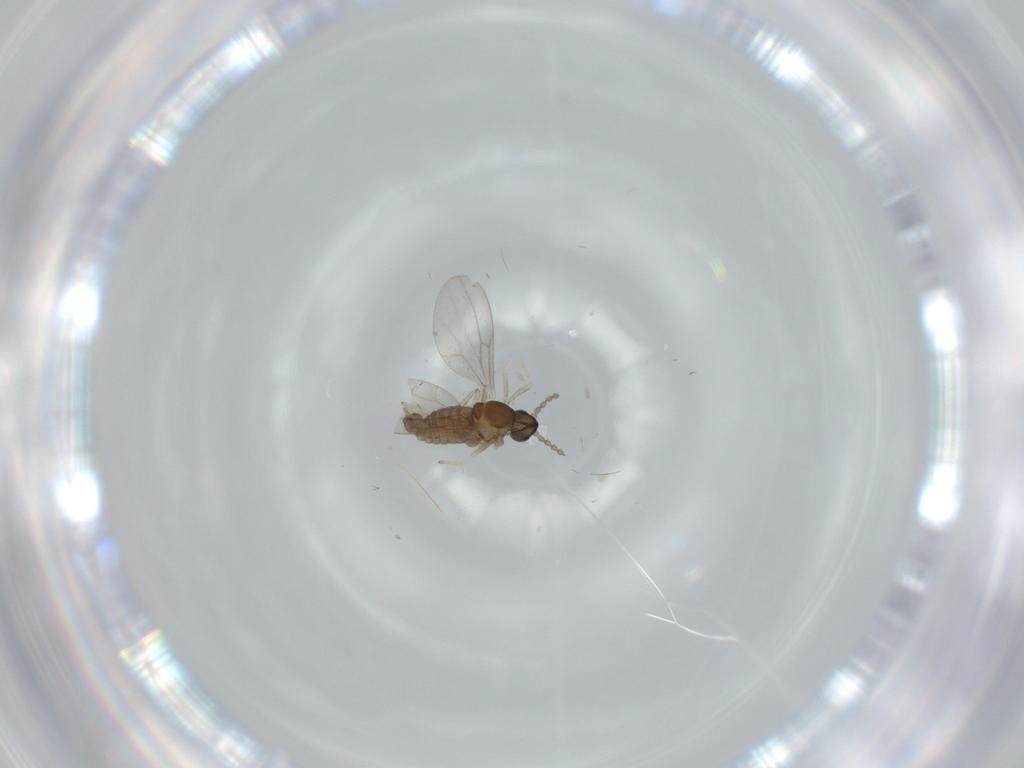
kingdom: Animalia
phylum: Arthropoda
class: Insecta
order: Diptera
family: Cecidomyiidae
